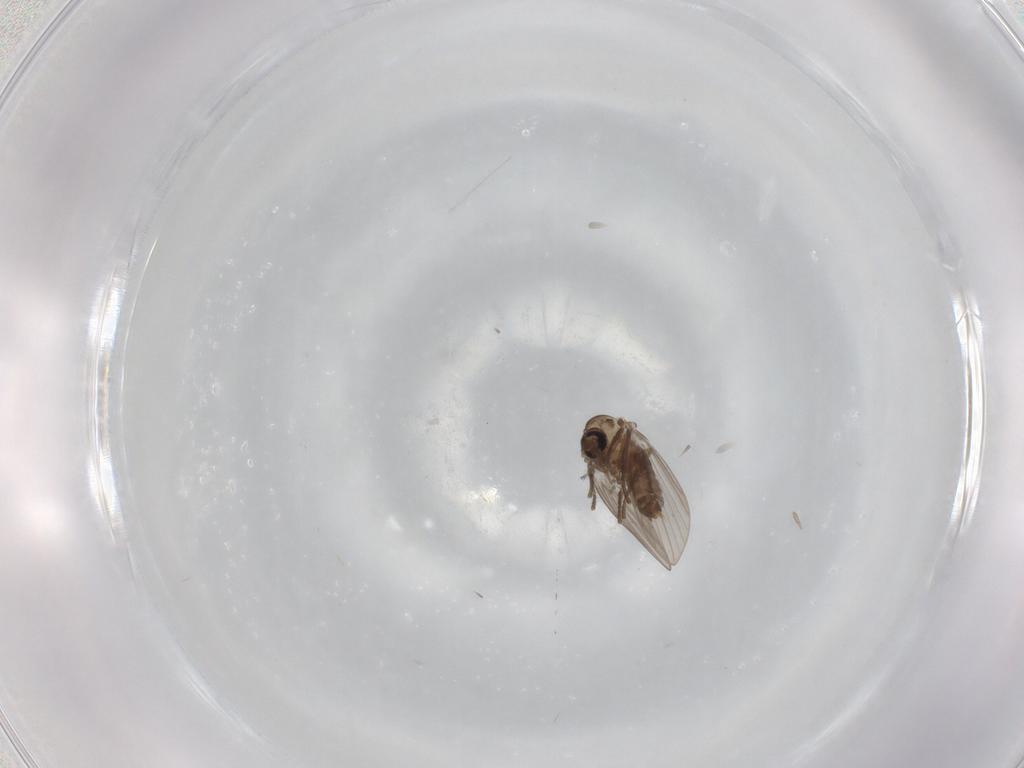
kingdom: Animalia
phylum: Arthropoda
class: Insecta
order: Diptera
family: Psychodidae
